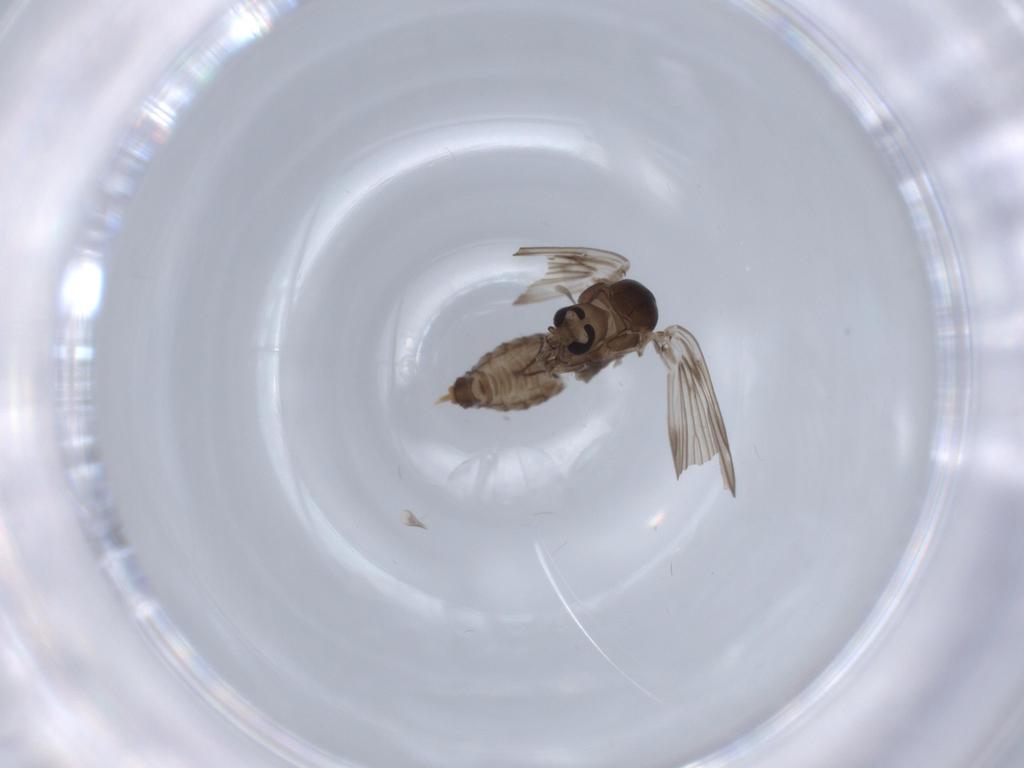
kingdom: Animalia
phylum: Arthropoda
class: Insecta
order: Diptera
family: Psychodidae
